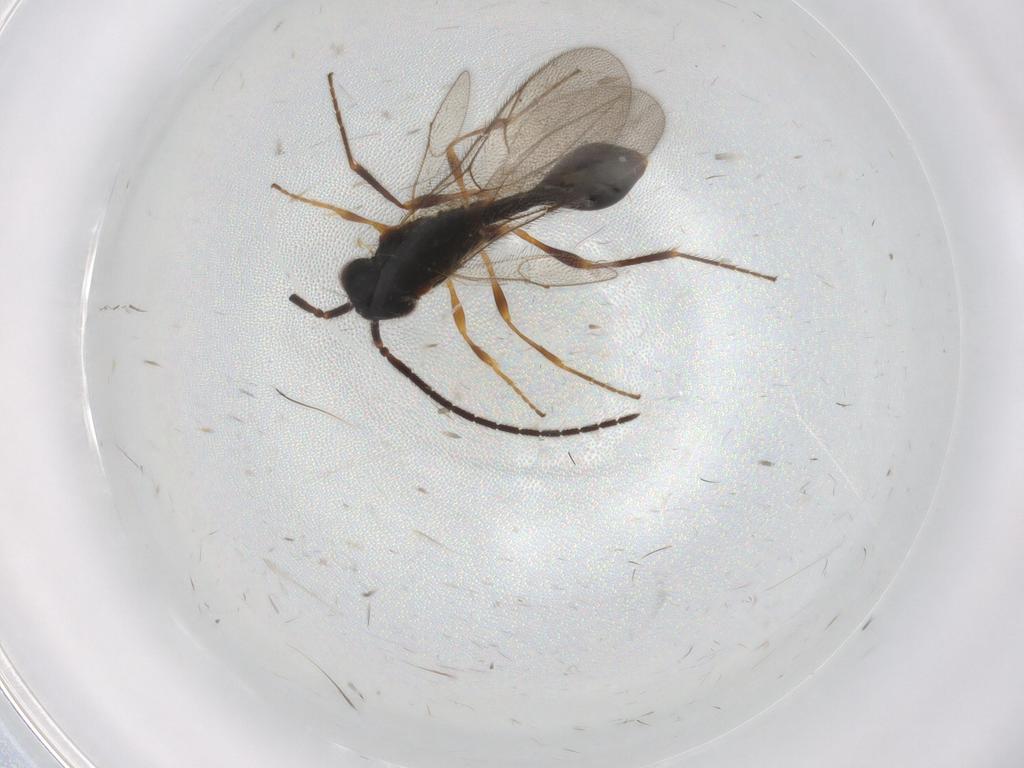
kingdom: Animalia
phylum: Arthropoda
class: Insecta
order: Hymenoptera
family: Diapriidae
